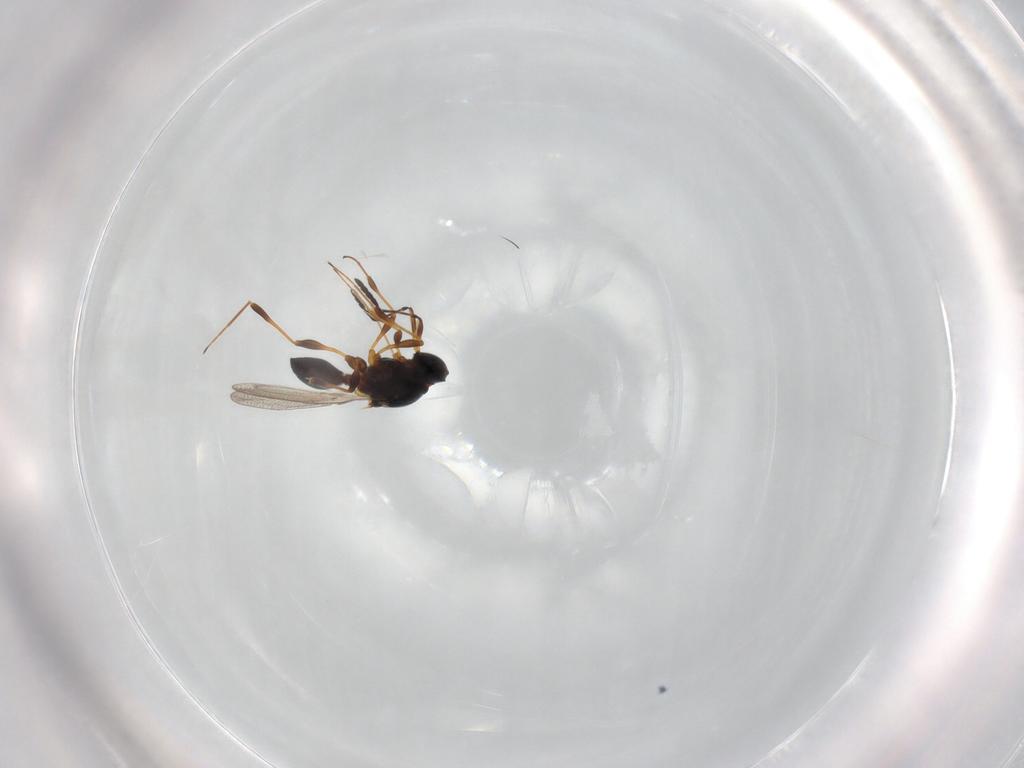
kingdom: Animalia
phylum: Arthropoda
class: Insecta
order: Hymenoptera
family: Platygastridae
